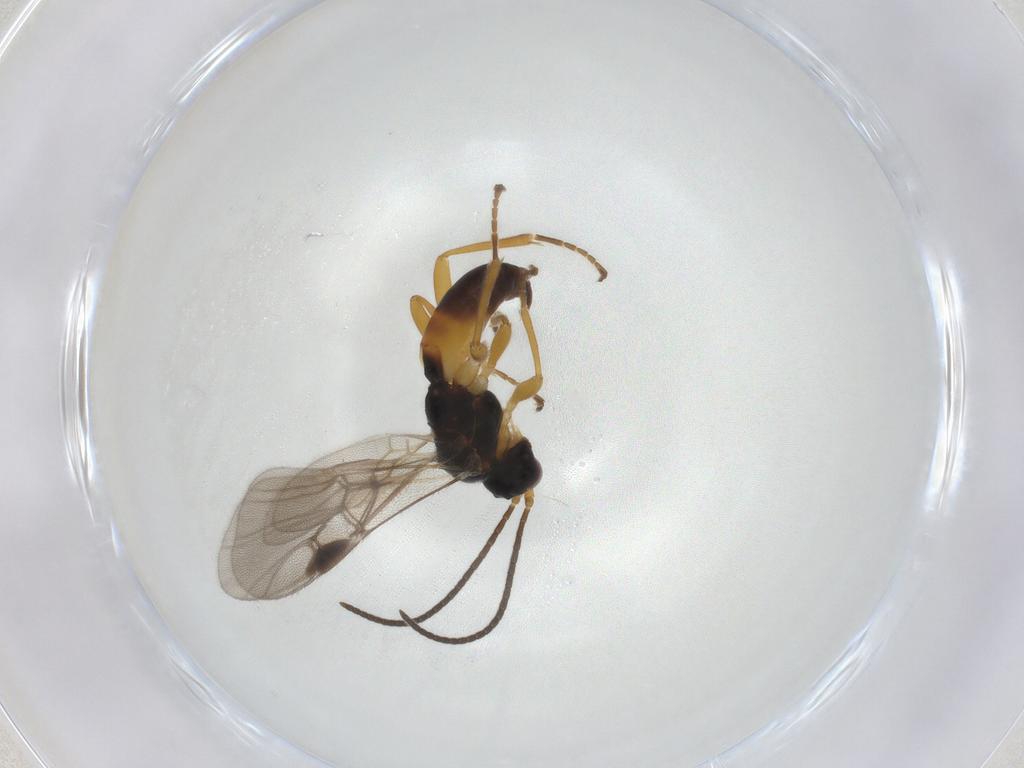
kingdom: Animalia
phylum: Arthropoda
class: Insecta
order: Hymenoptera
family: Braconidae
